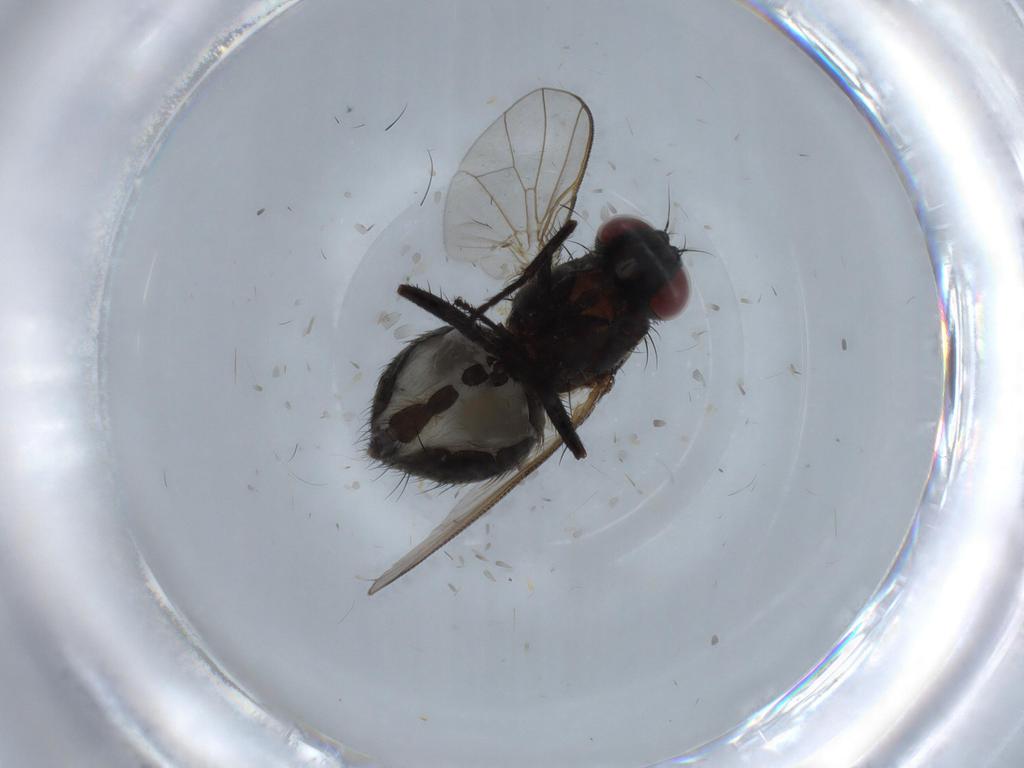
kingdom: Animalia
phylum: Arthropoda
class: Insecta
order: Diptera
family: Muscidae
